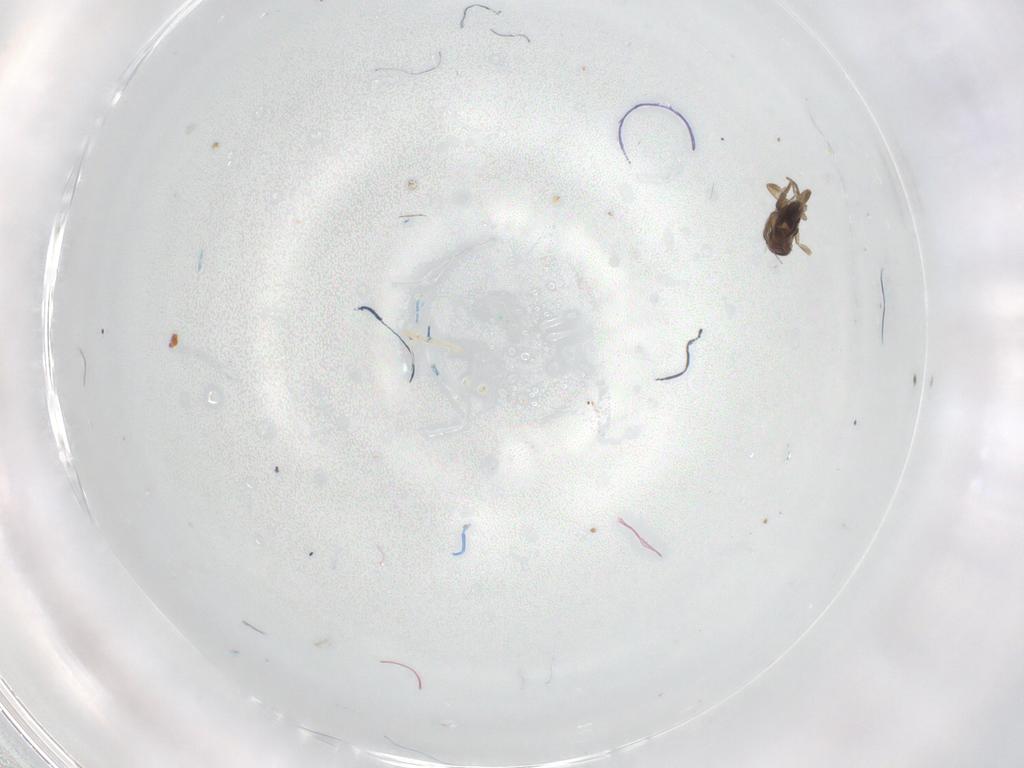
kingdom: Animalia
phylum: Arthropoda
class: Insecta
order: Diptera
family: Phoridae
